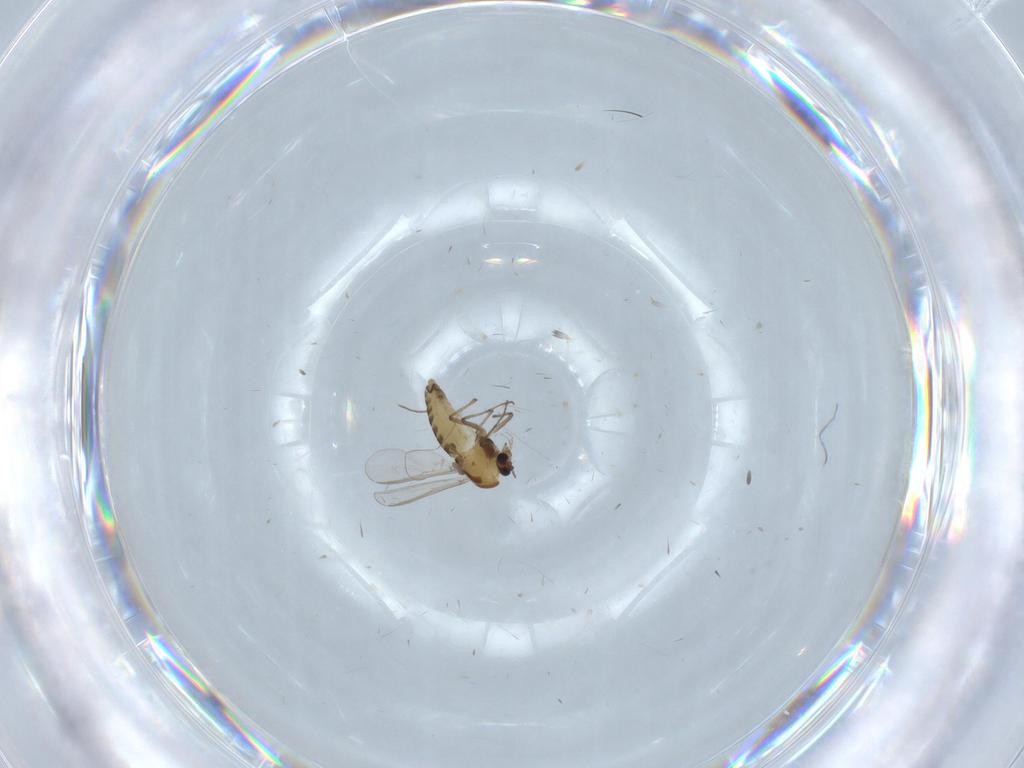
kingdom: Animalia
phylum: Arthropoda
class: Insecta
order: Diptera
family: Chironomidae
